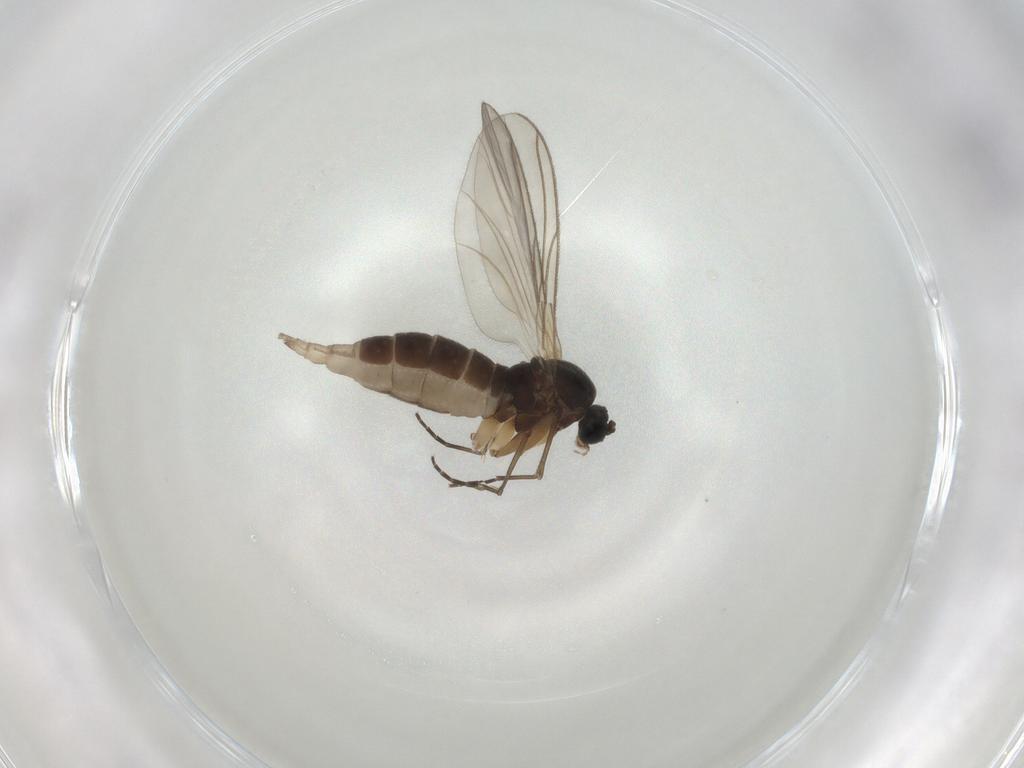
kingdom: Animalia
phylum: Arthropoda
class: Insecta
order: Diptera
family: Sciaridae
